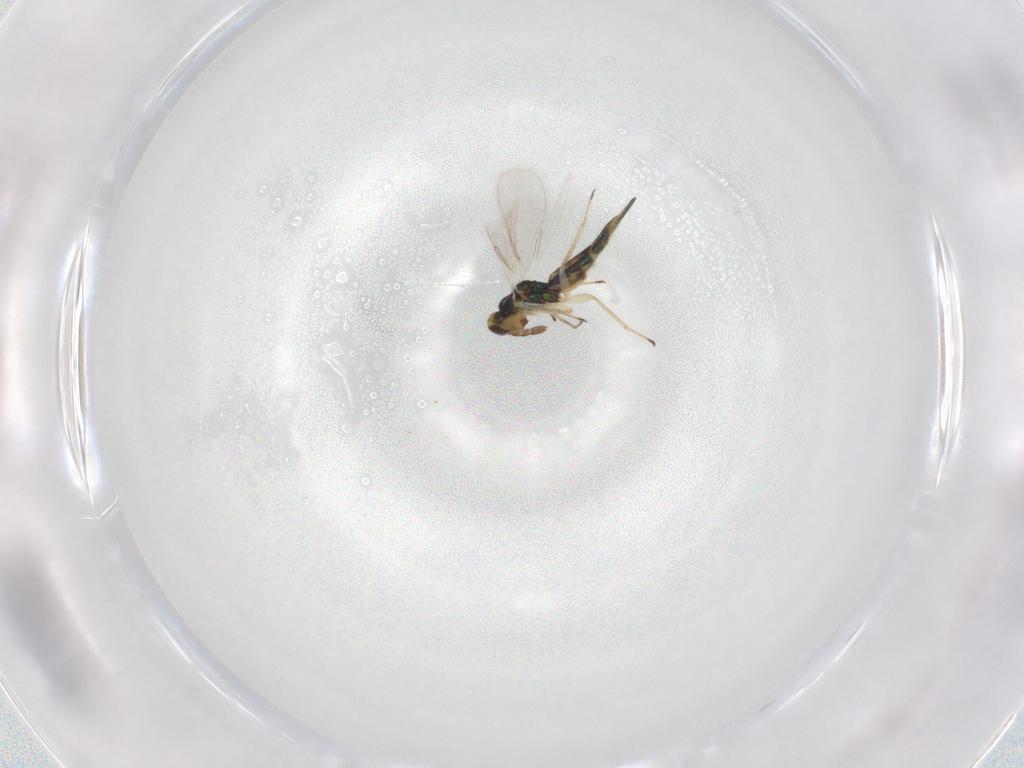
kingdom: Animalia
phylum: Arthropoda
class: Insecta
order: Hymenoptera
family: Eulophidae
